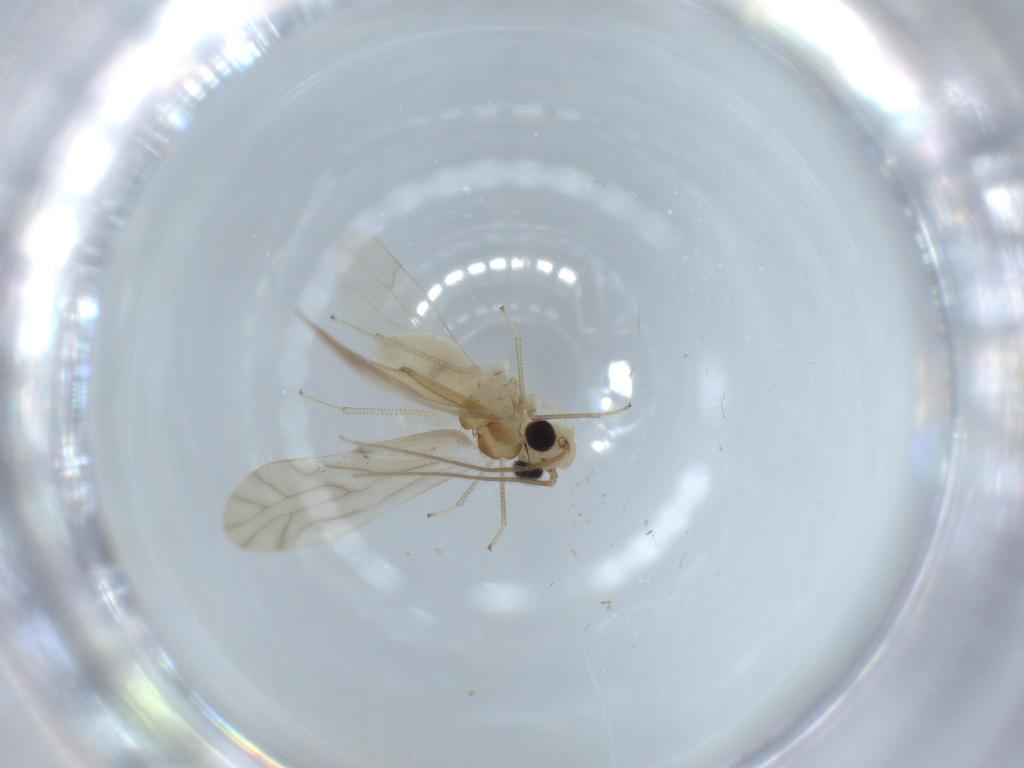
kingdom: Animalia
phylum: Arthropoda
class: Insecta
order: Psocodea
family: Caeciliusidae
